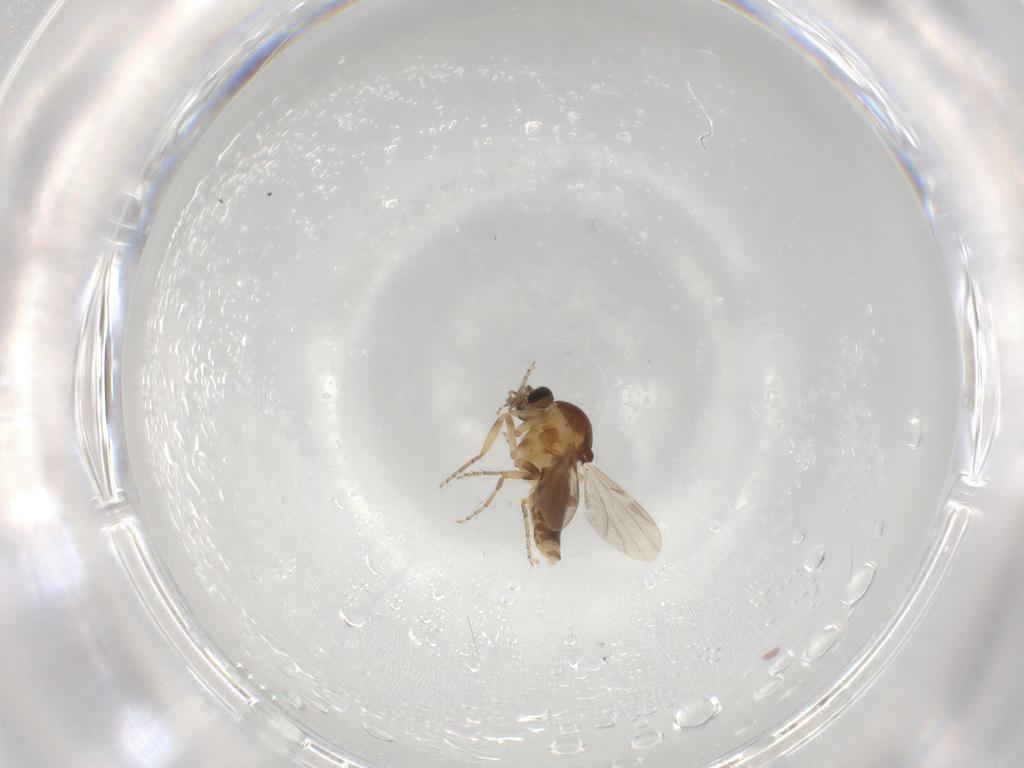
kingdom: Animalia
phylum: Arthropoda
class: Insecta
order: Diptera
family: Ceratopogonidae
